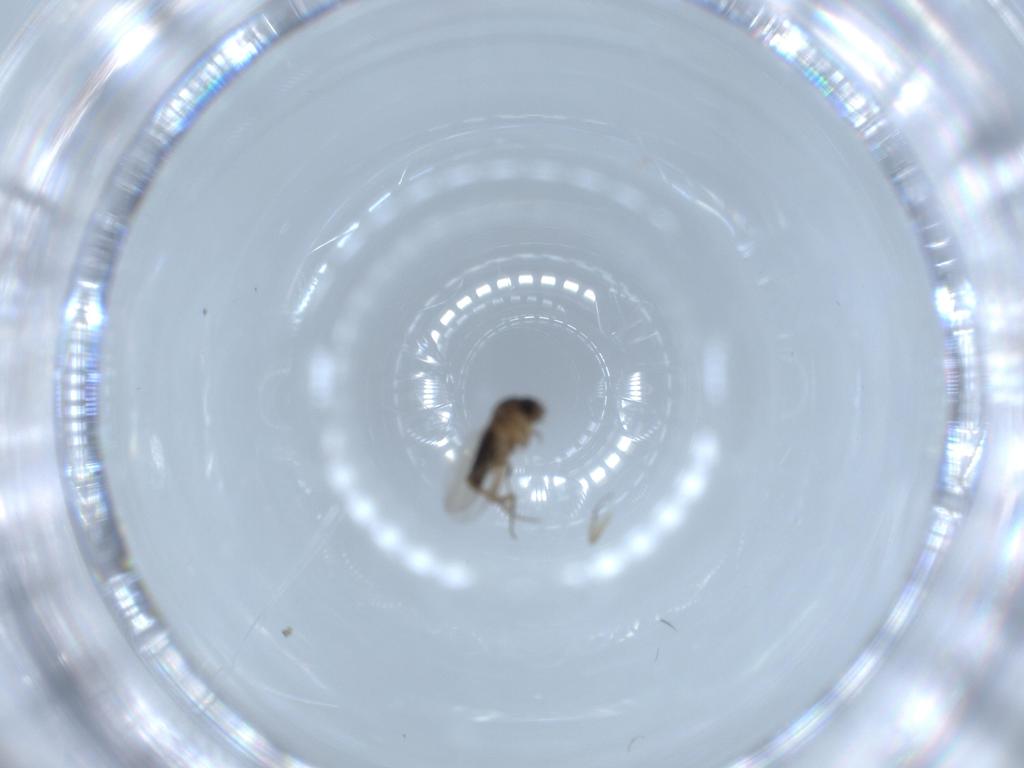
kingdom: Animalia
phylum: Arthropoda
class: Insecta
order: Diptera
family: Phoridae
